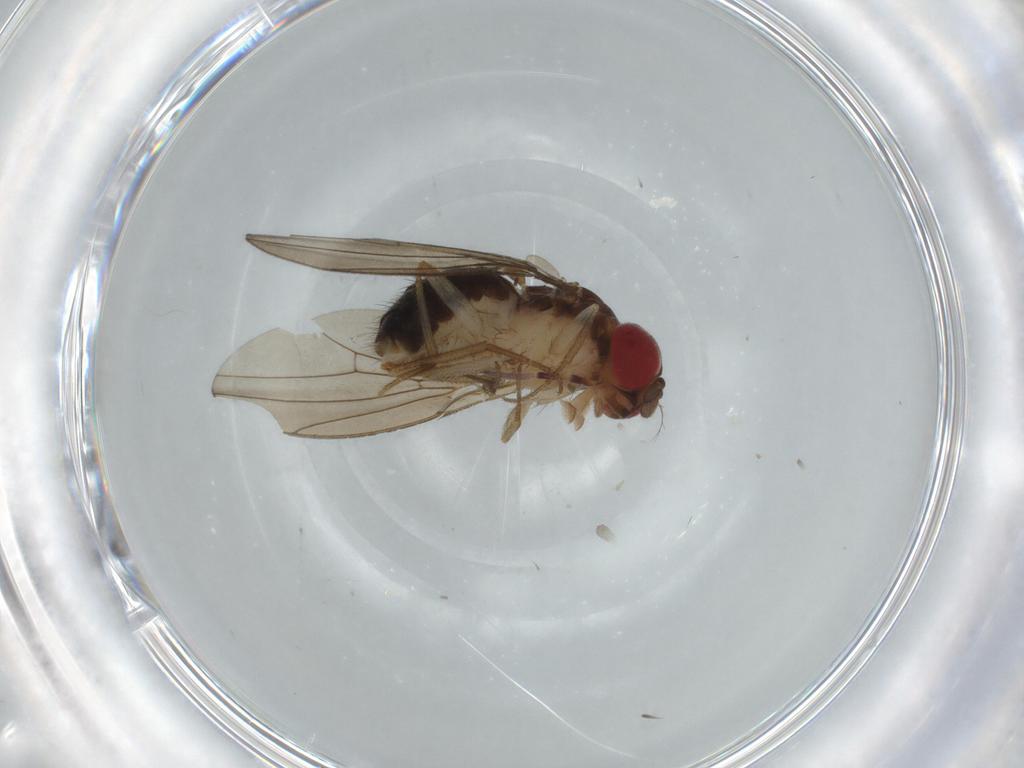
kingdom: Animalia
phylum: Arthropoda
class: Insecta
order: Diptera
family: Drosophilidae
